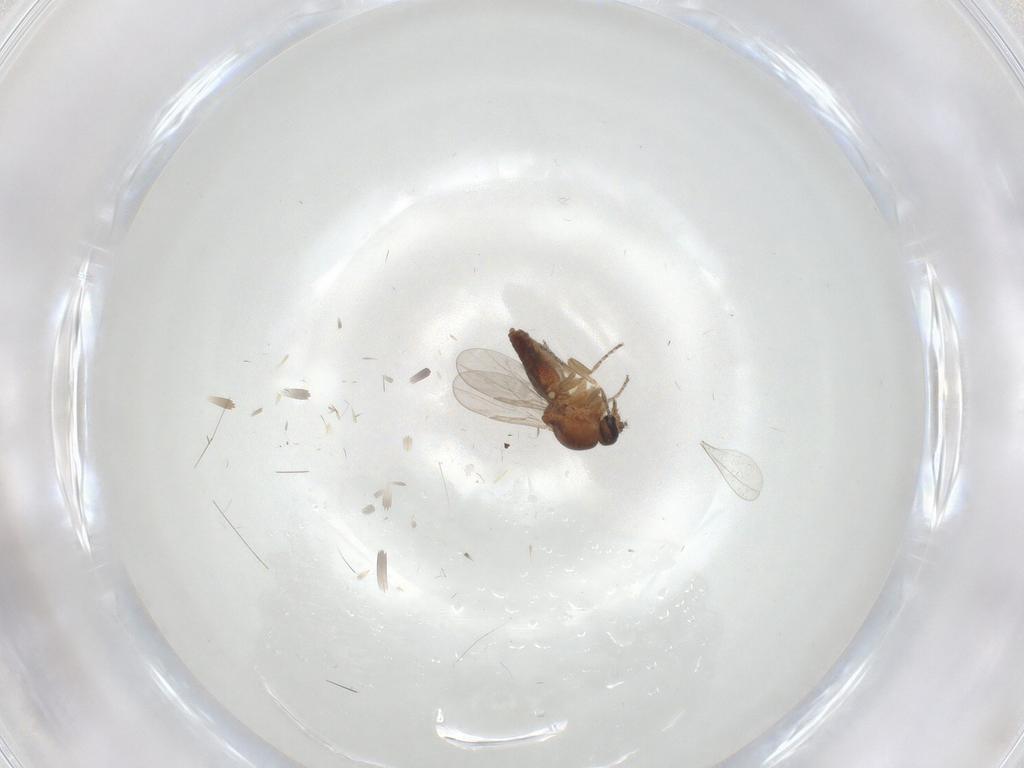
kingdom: Animalia
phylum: Arthropoda
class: Insecta
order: Diptera
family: Ceratopogonidae
